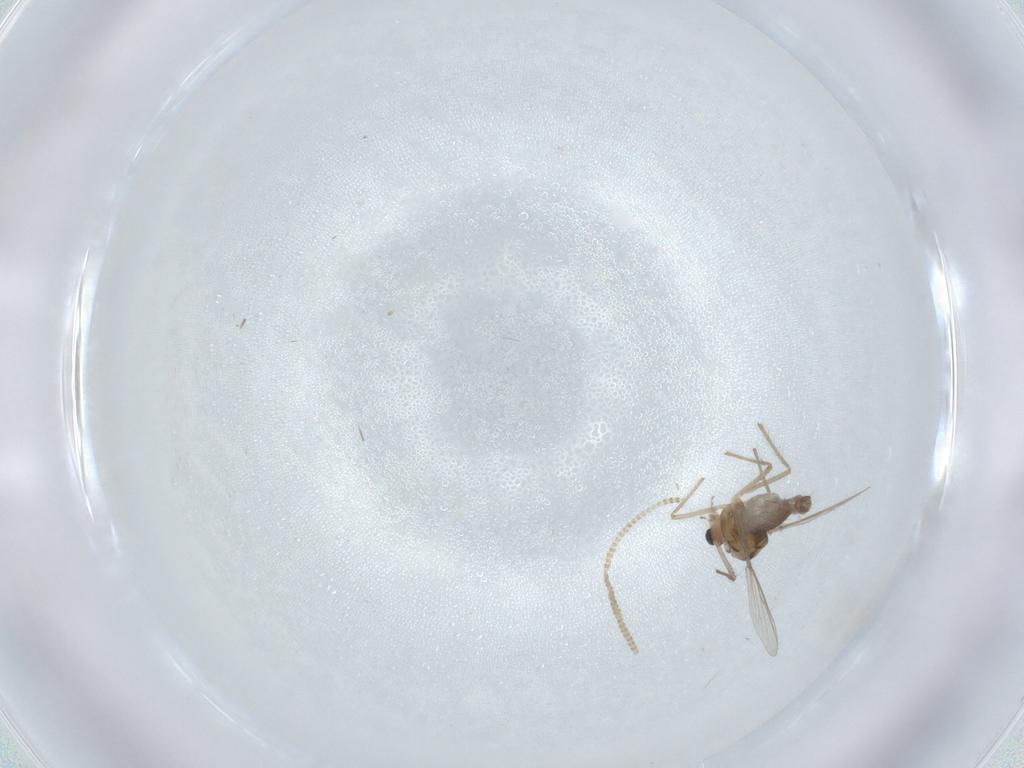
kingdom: Animalia
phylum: Arthropoda
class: Insecta
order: Diptera
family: Chironomidae
